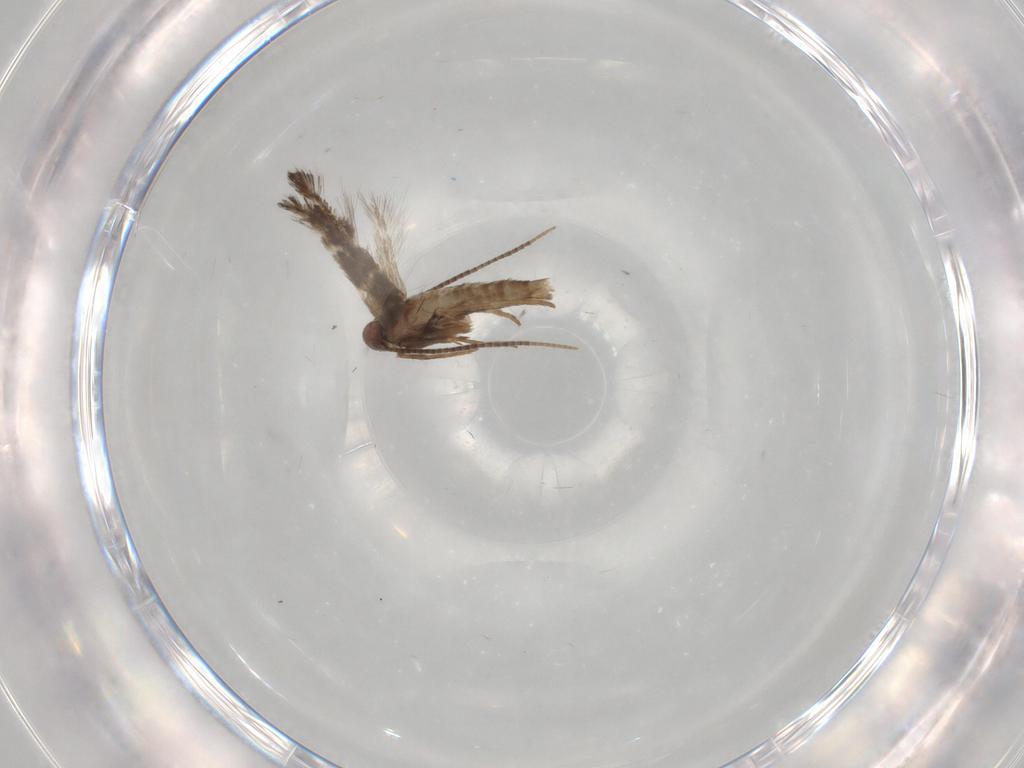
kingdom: Animalia
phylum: Arthropoda
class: Insecta
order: Lepidoptera
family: Gracillariidae
